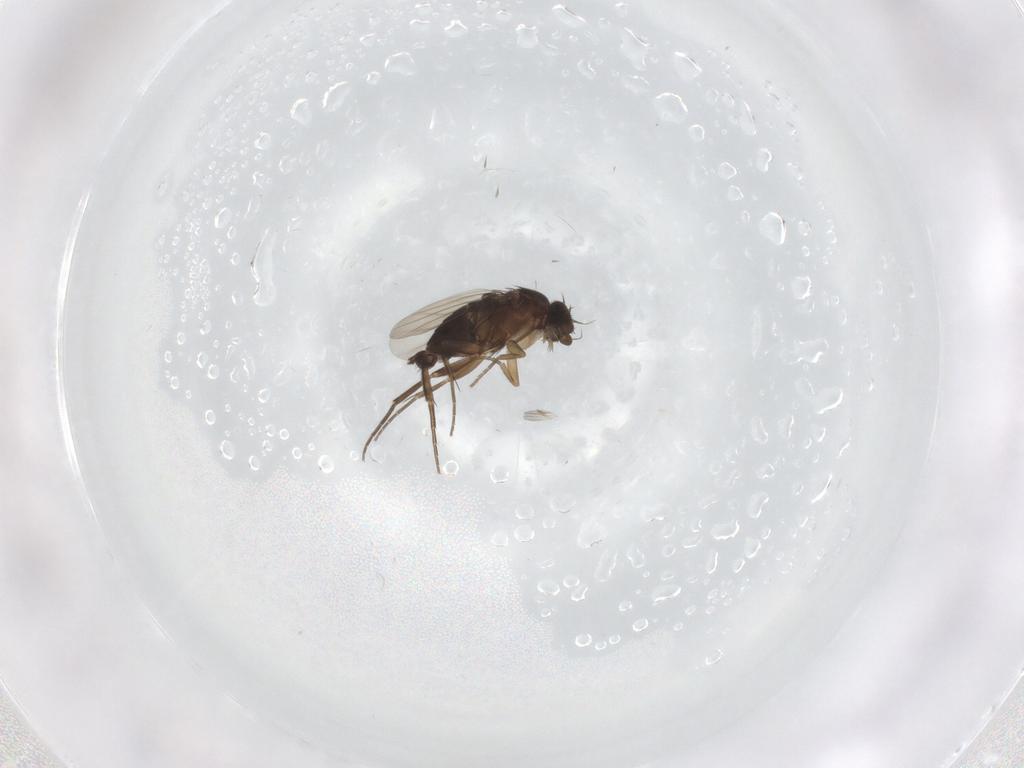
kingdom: Animalia
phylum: Arthropoda
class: Insecta
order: Diptera
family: Phoridae
